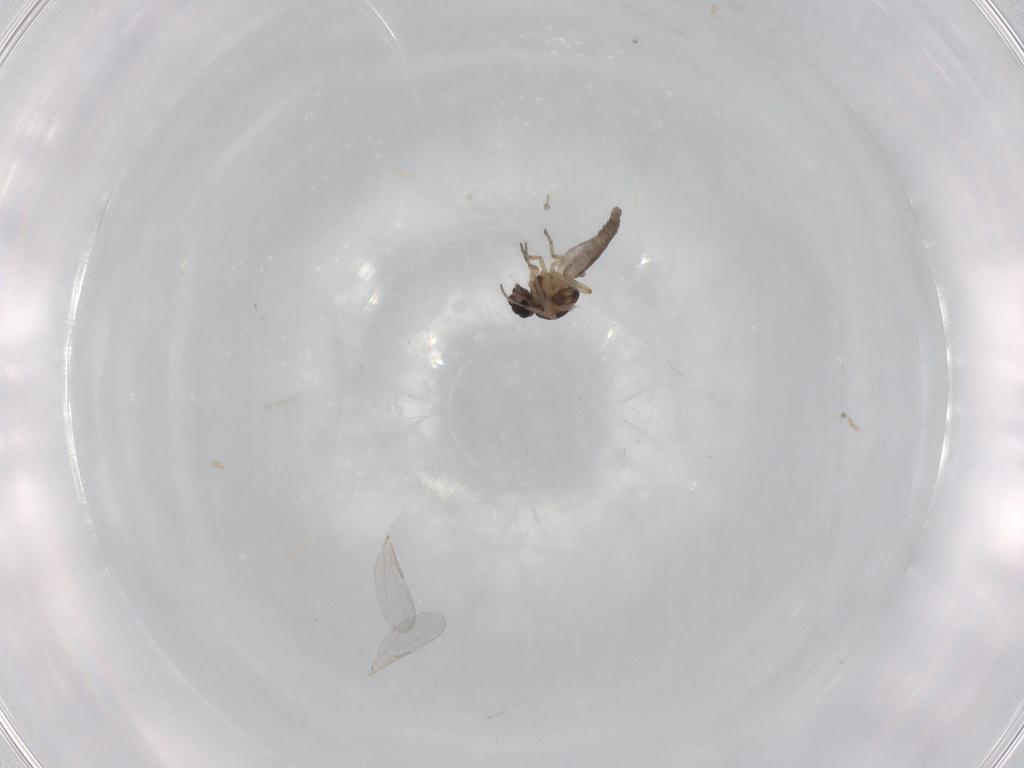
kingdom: Animalia
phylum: Arthropoda
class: Insecta
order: Diptera
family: Ceratopogonidae
